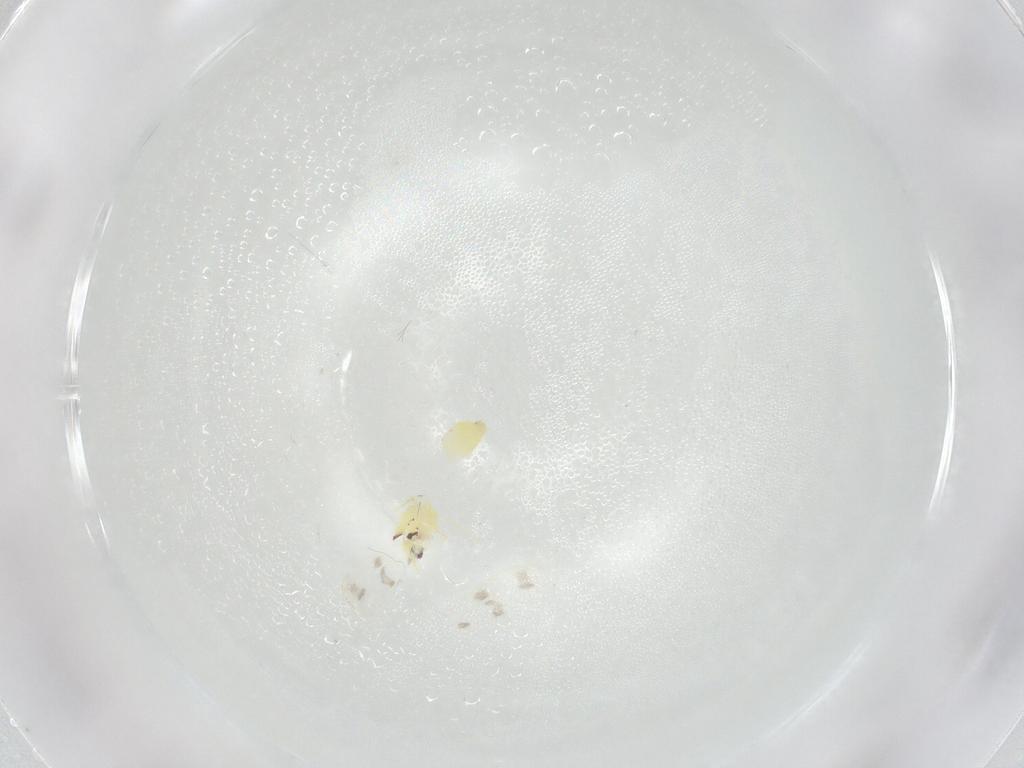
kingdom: Animalia
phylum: Arthropoda
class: Insecta
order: Hemiptera
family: Aleyrodidae
